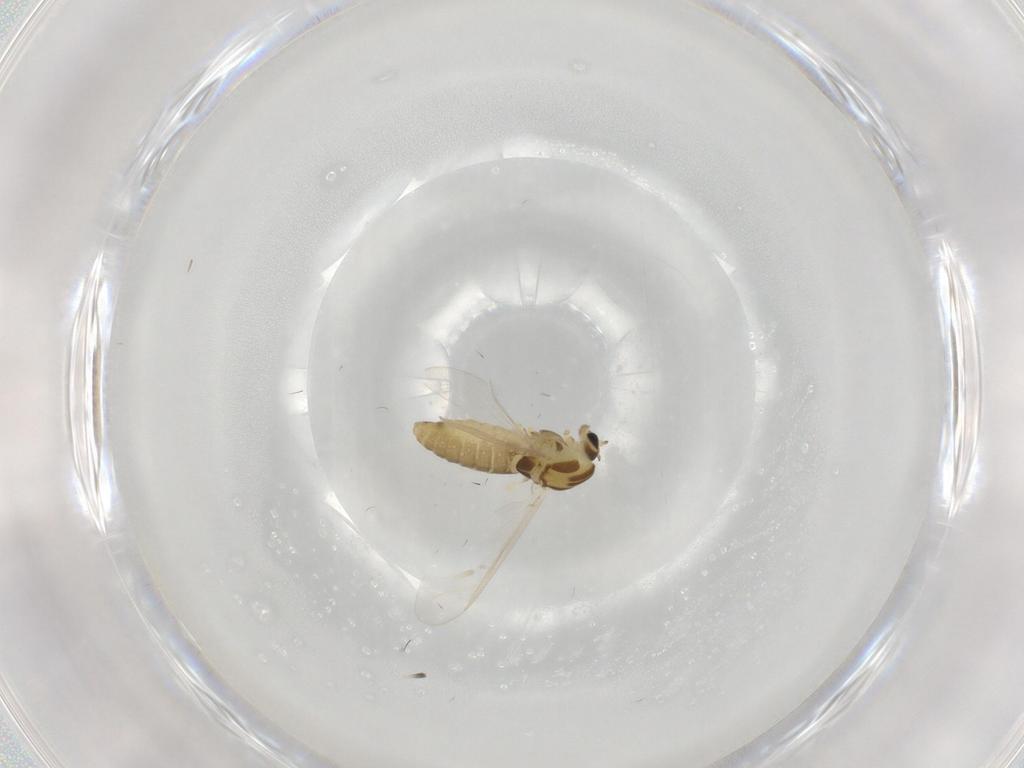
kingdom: Animalia
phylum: Arthropoda
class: Insecta
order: Diptera
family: Chironomidae
